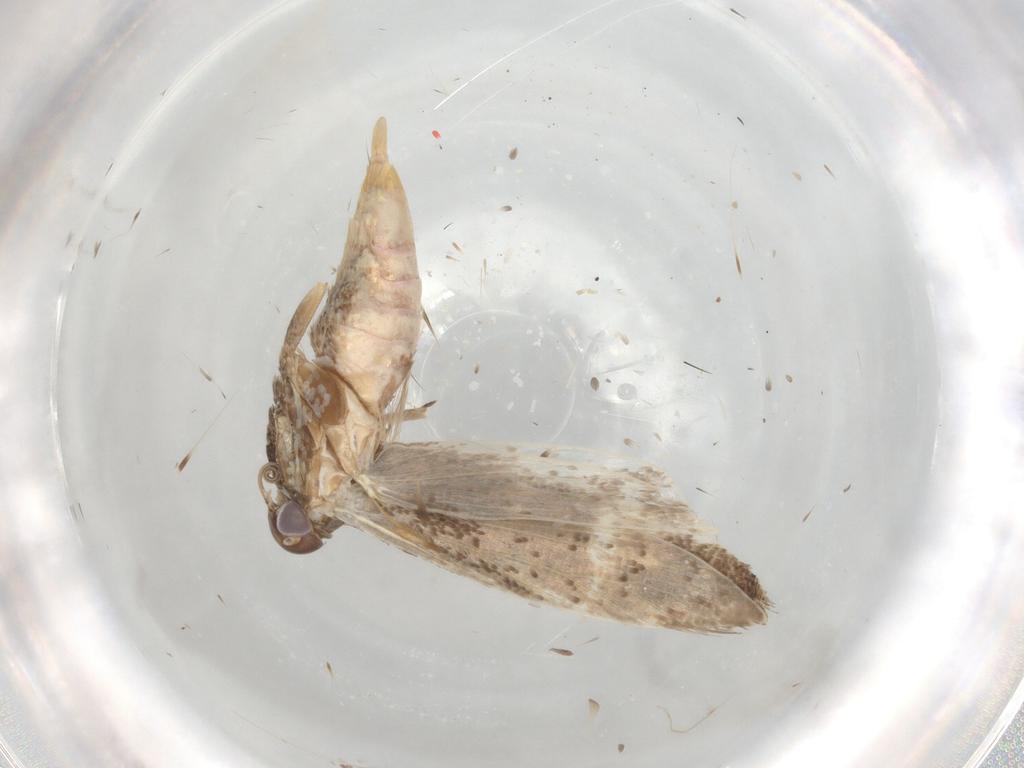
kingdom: Animalia
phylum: Arthropoda
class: Insecta
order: Lepidoptera
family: Gelechiidae
